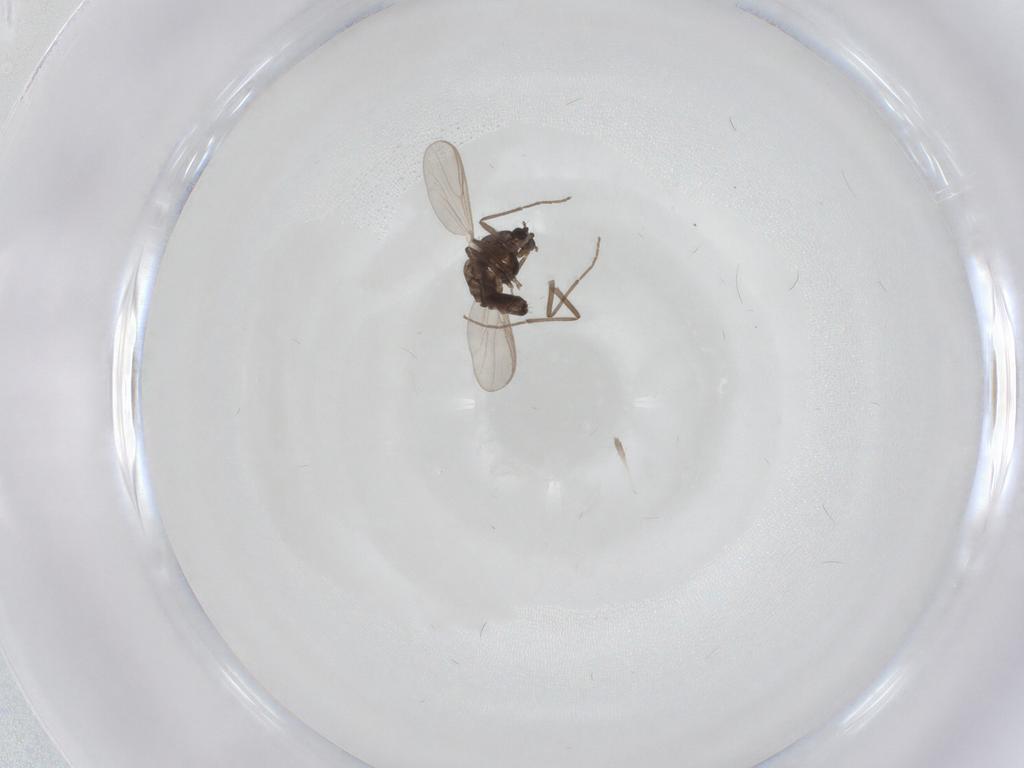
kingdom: Animalia
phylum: Arthropoda
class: Insecta
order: Diptera
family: Chironomidae
